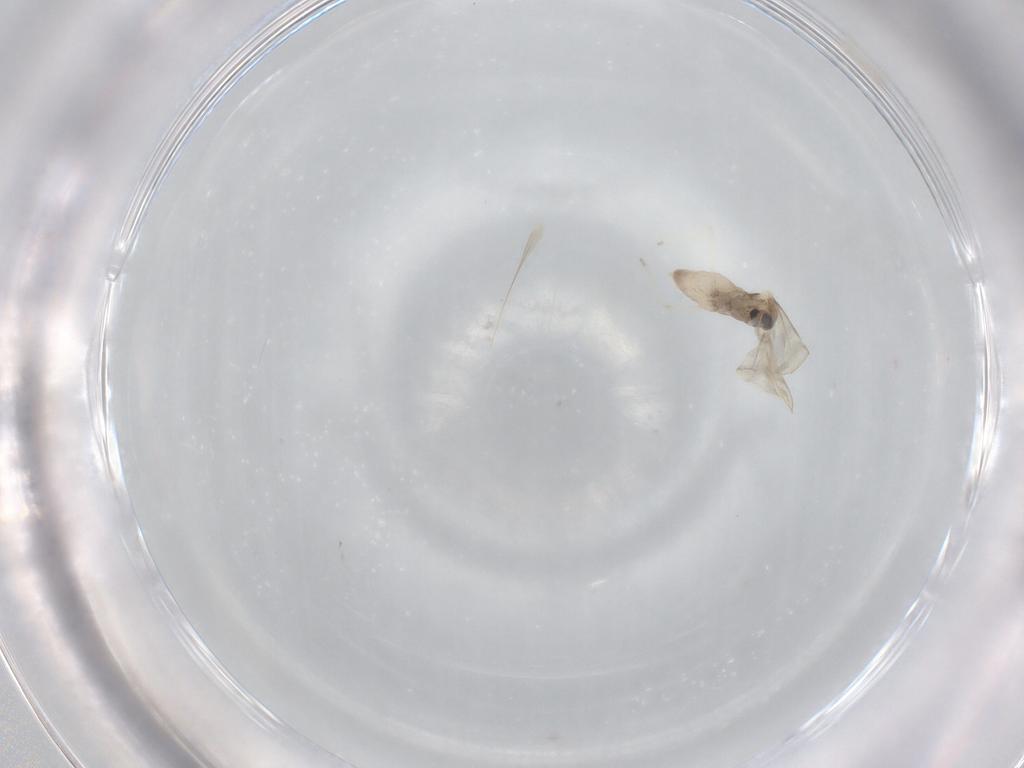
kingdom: Animalia
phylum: Arthropoda
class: Insecta
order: Diptera
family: Cecidomyiidae
